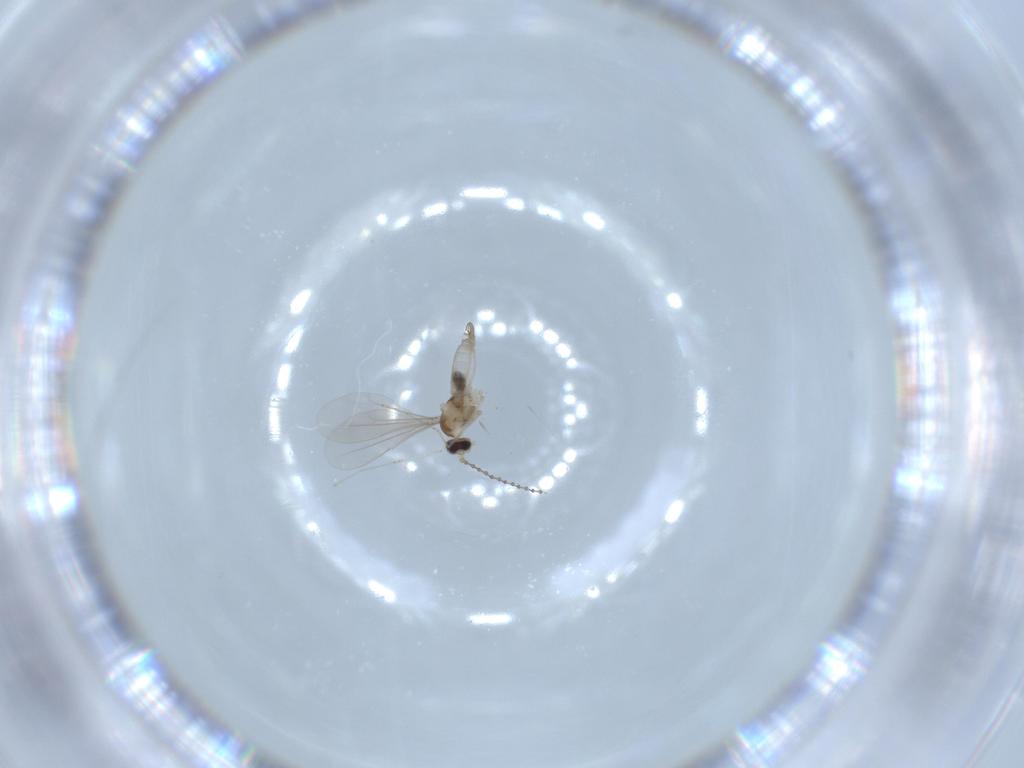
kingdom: Animalia
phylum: Arthropoda
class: Insecta
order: Diptera
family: Cecidomyiidae
